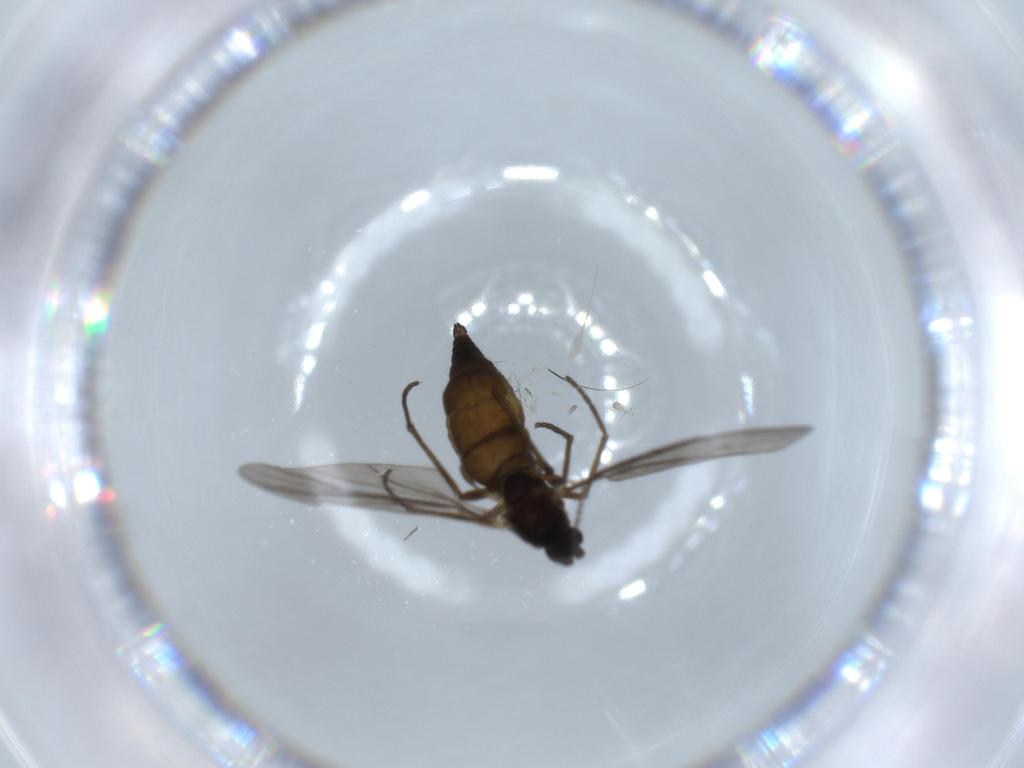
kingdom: Animalia
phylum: Arthropoda
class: Insecta
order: Diptera
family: Sciaridae
